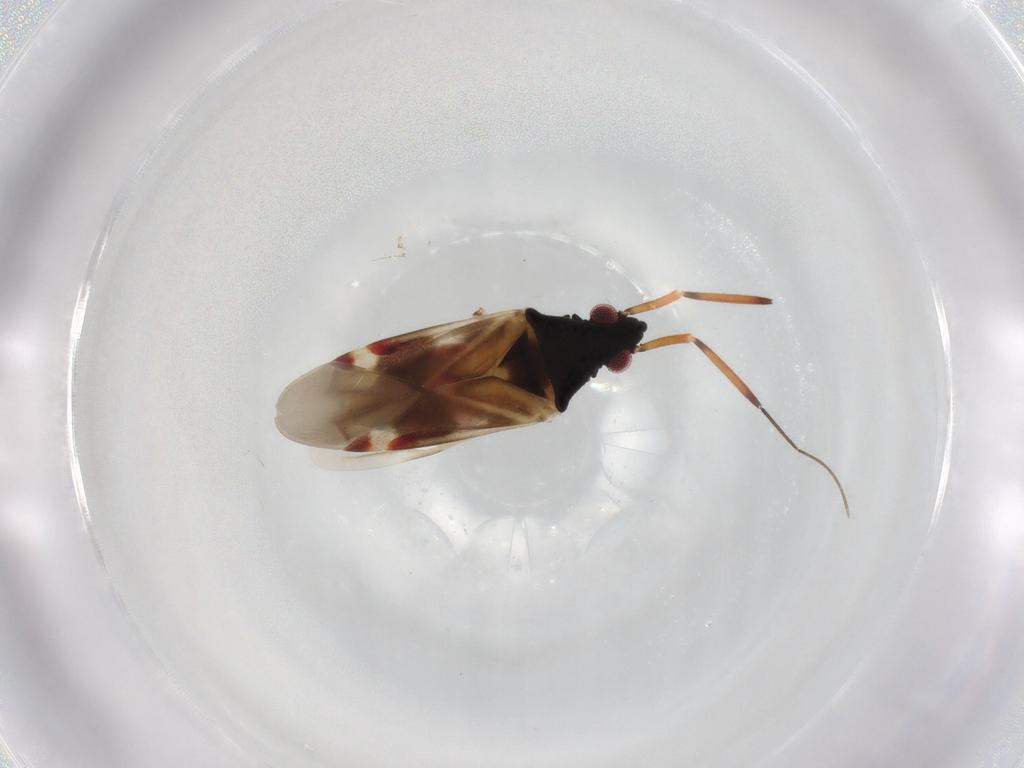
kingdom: Animalia
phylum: Arthropoda
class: Insecta
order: Hemiptera
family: Miridae
